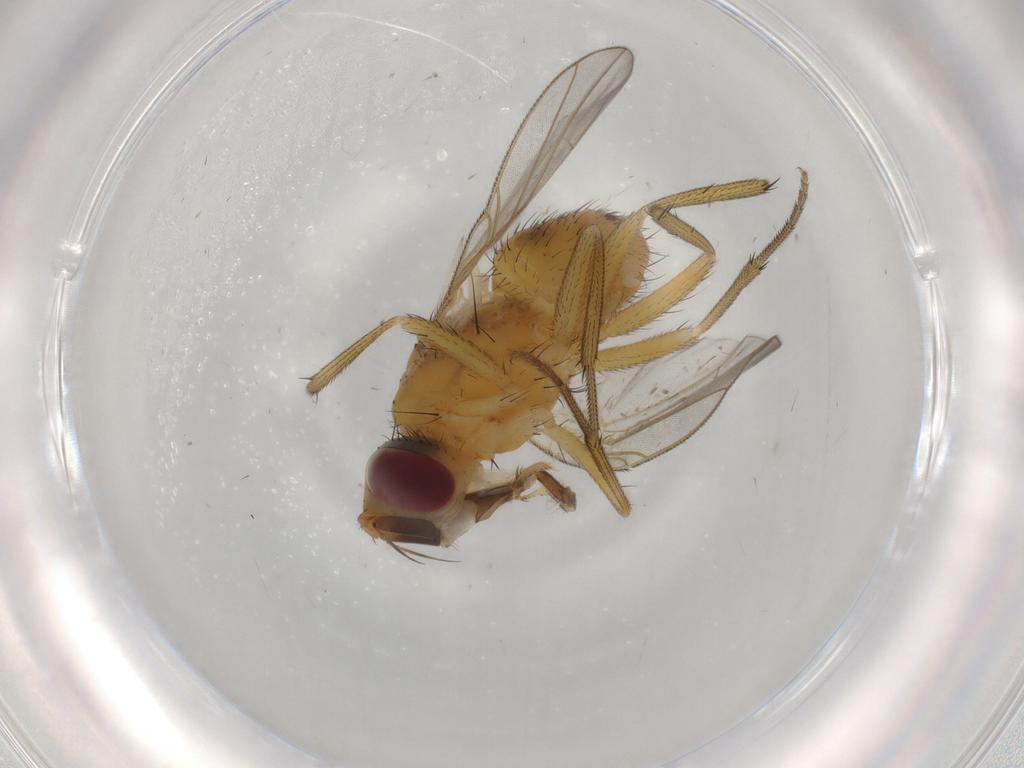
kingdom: Animalia
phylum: Arthropoda
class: Insecta
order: Diptera
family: Muscidae
